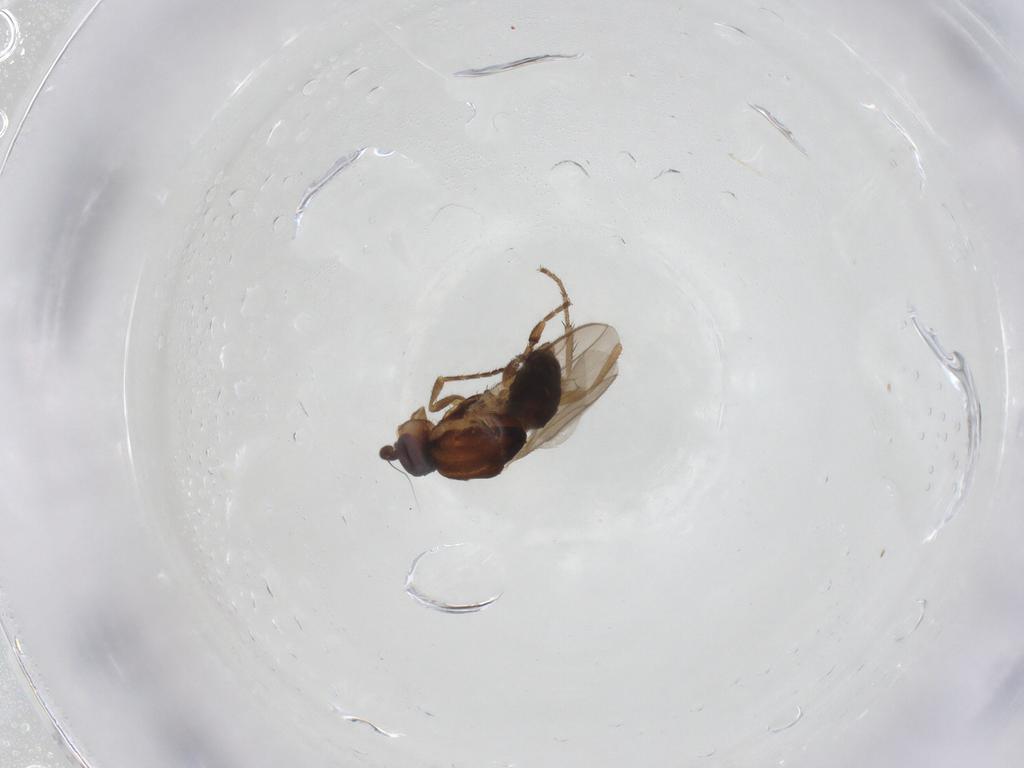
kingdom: Animalia
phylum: Arthropoda
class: Insecta
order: Diptera
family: Sphaeroceridae
